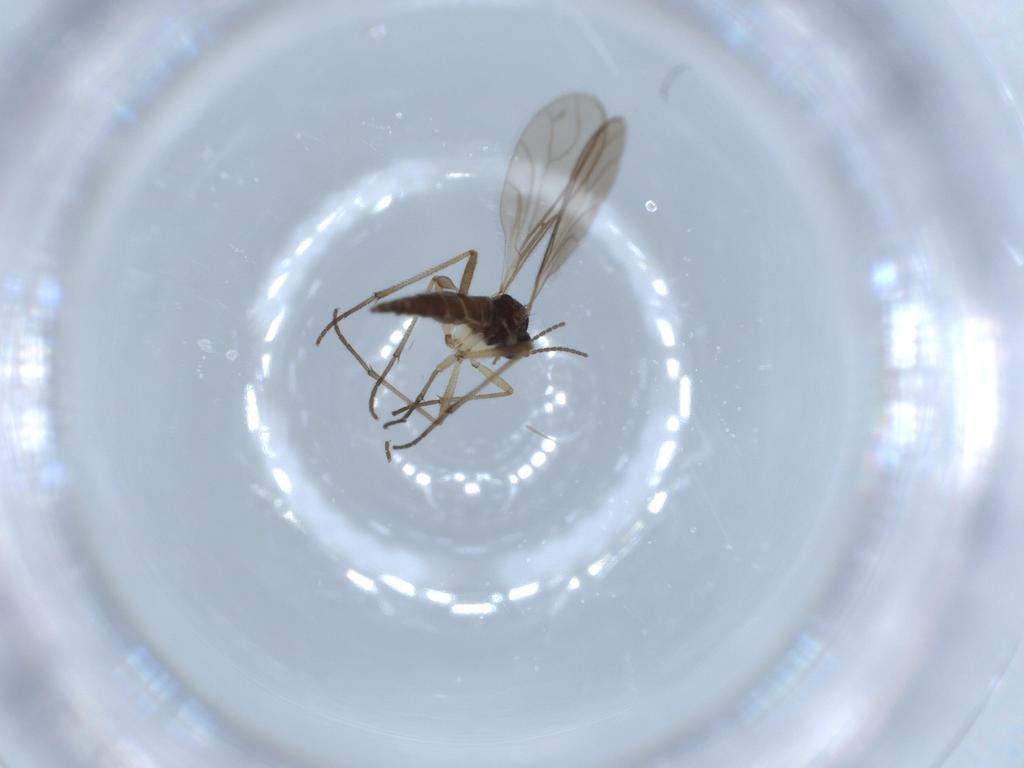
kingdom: Animalia
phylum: Arthropoda
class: Insecta
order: Diptera
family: Sciaridae
